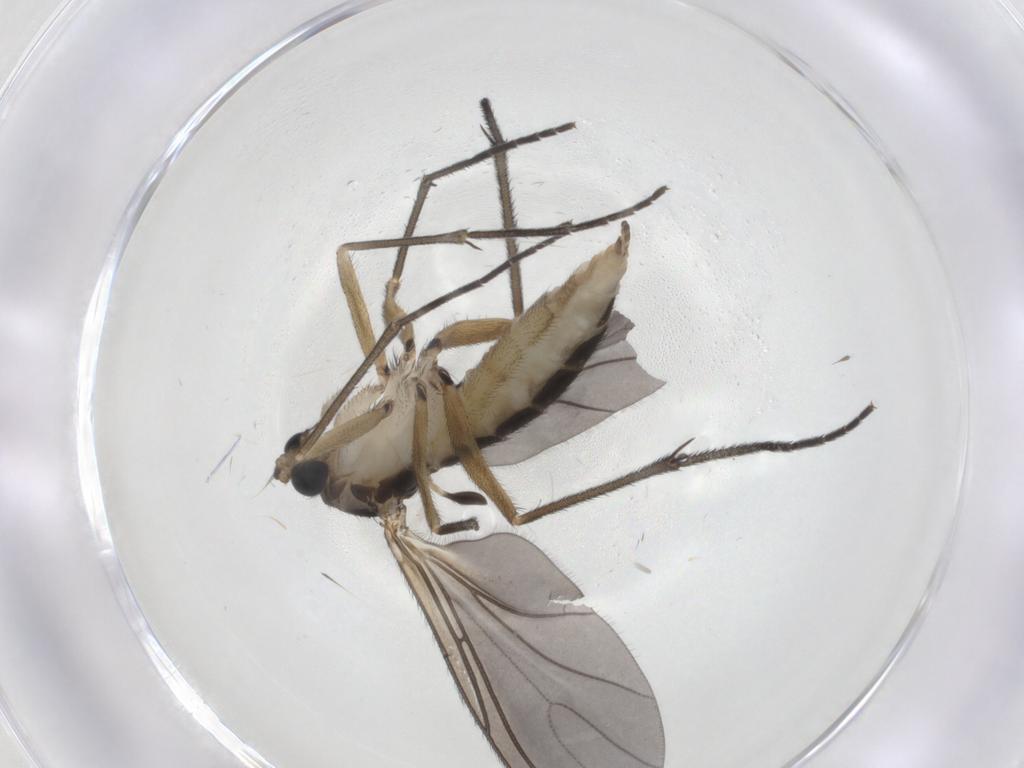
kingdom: Animalia
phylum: Arthropoda
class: Insecta
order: Diptera
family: Sciaridae
